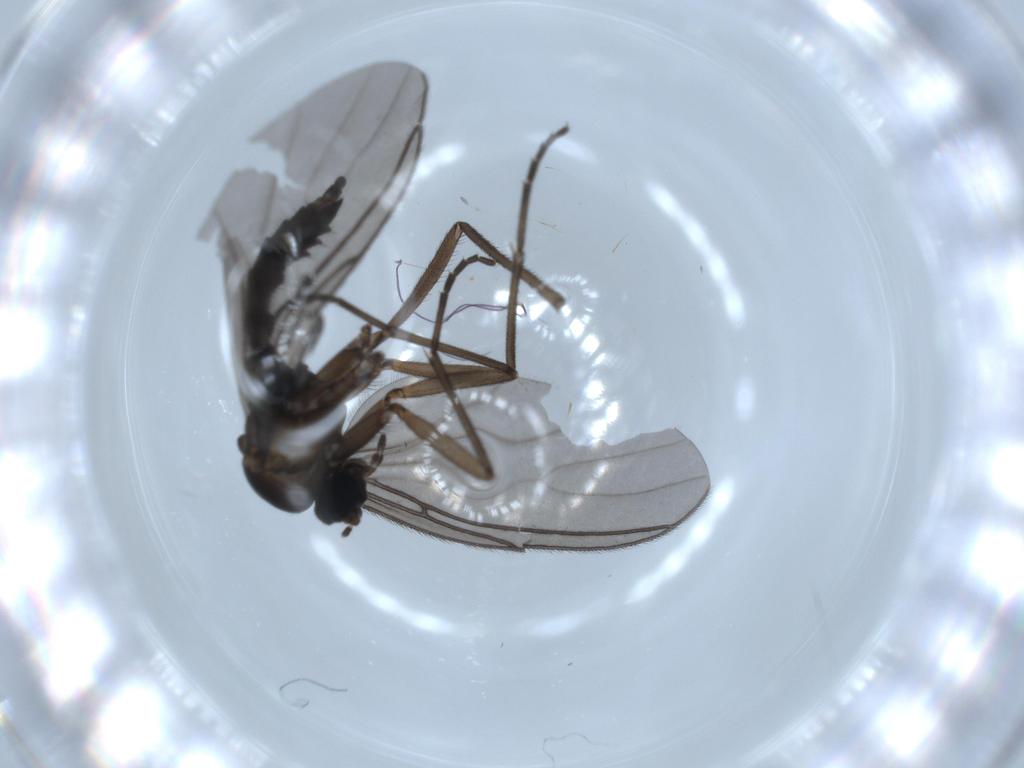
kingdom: Animalia
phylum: Arthropoda
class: Insecta
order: Diptera
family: Sciaridae
